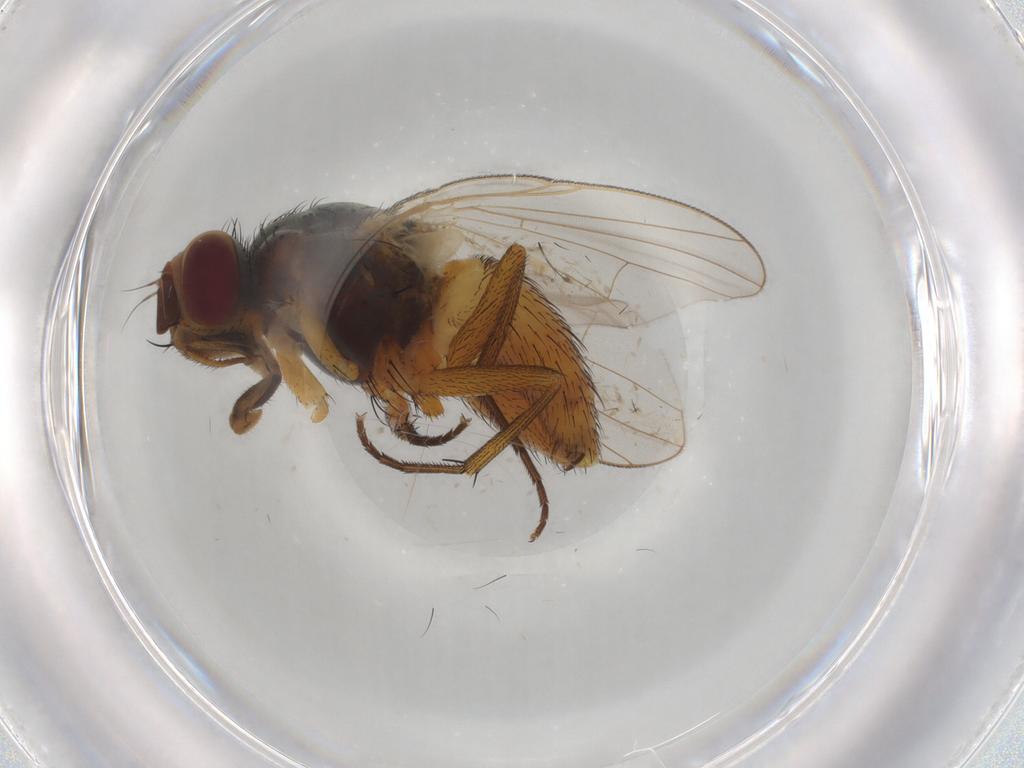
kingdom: Animalia
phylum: Arthropoda
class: Insecta
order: Diptera
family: Muscidae
